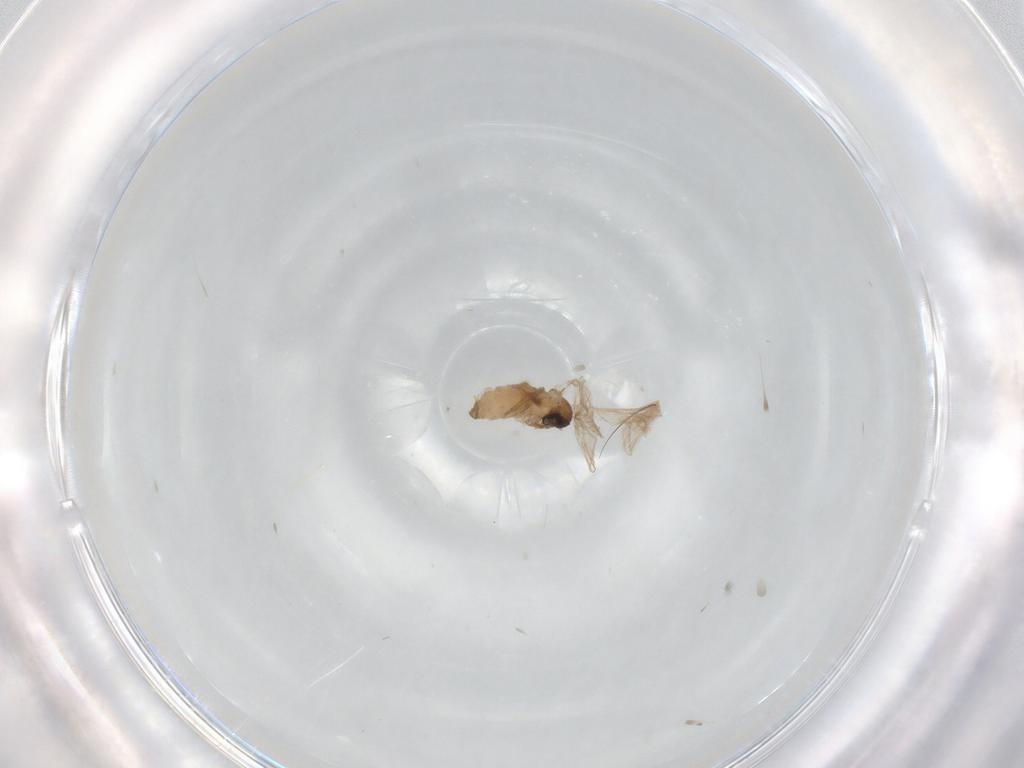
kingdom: Animalia
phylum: Arthropoda
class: Insecta
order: Diptera
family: Psychodidae
